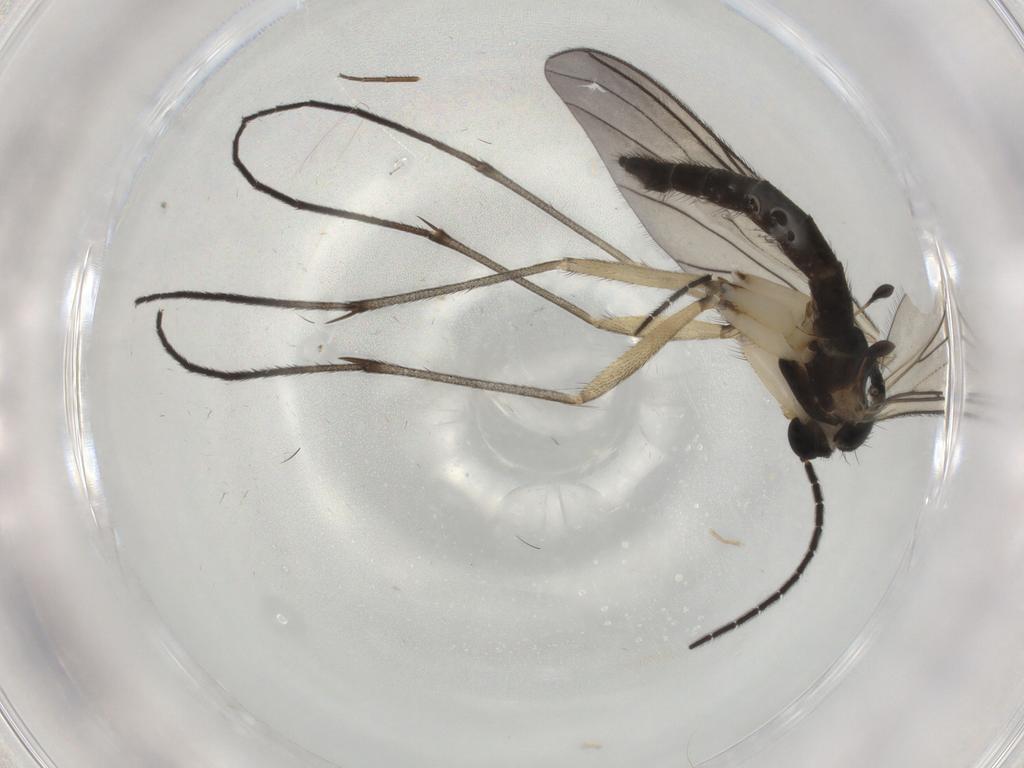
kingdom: Animalia
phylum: Arthropoda
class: Insecta
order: Diptera
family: Sciaridae
